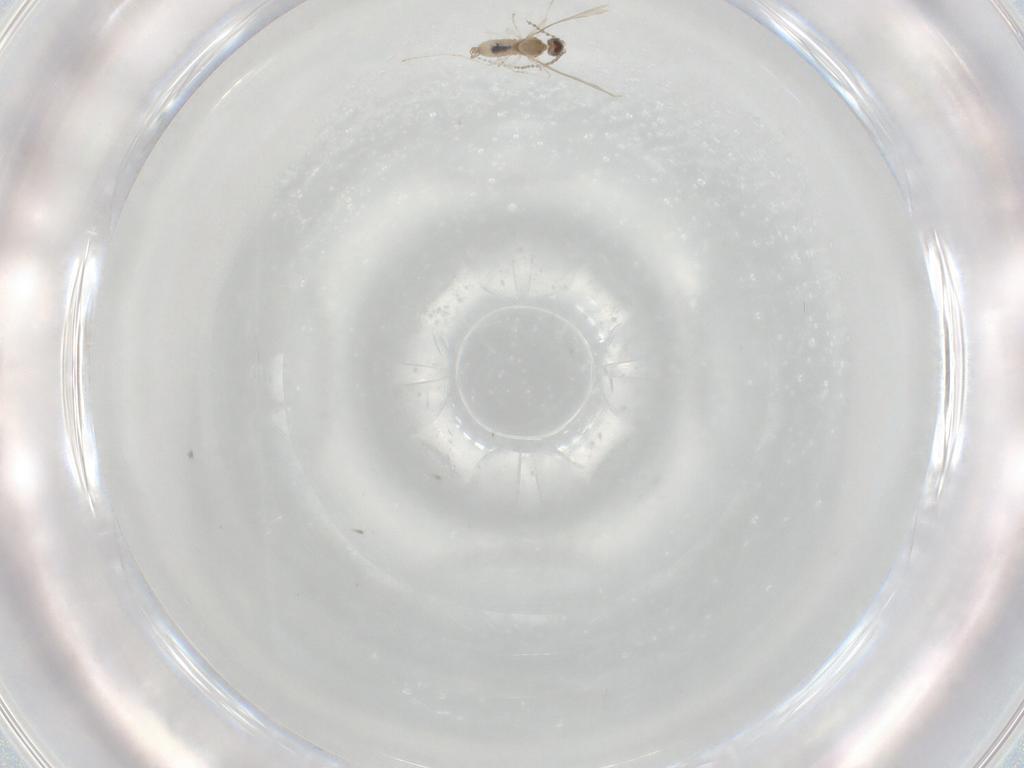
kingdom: Animalia
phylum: Arthropoda
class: Insecta
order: Diptera
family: Cecidomyiidae
